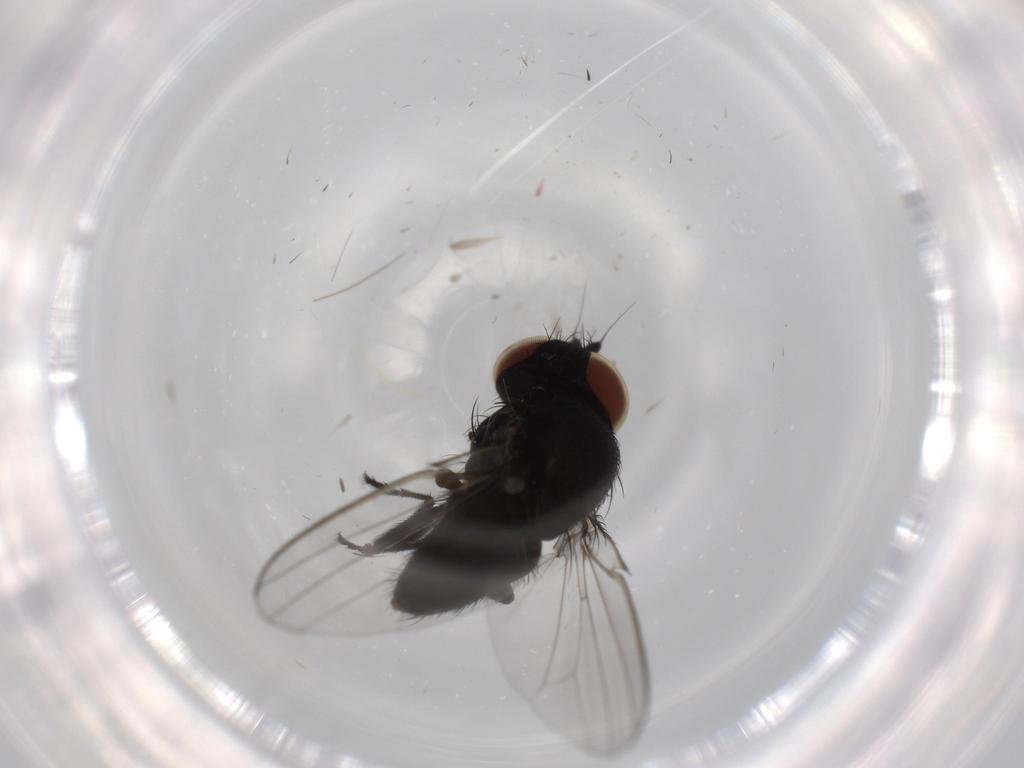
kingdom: Animalia
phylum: Arthropoda
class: Insecta
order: Diptera
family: Milichiidae
